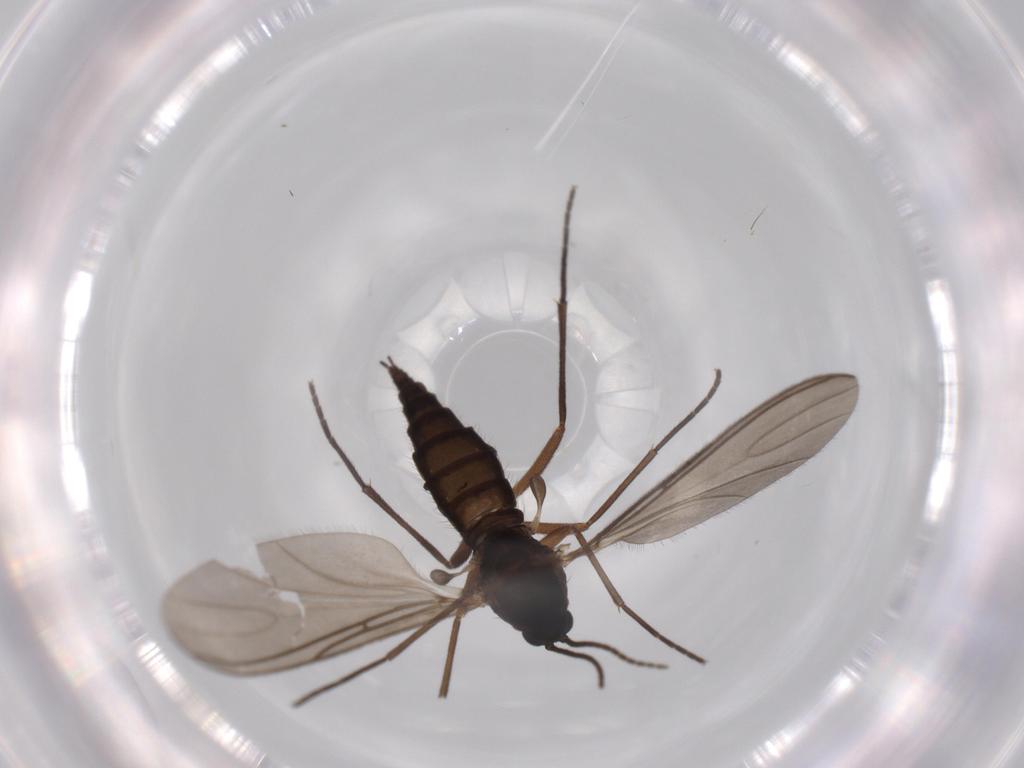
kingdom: Animalia
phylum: Arthropoda
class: Insecta
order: Diptera
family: Sciaridae
